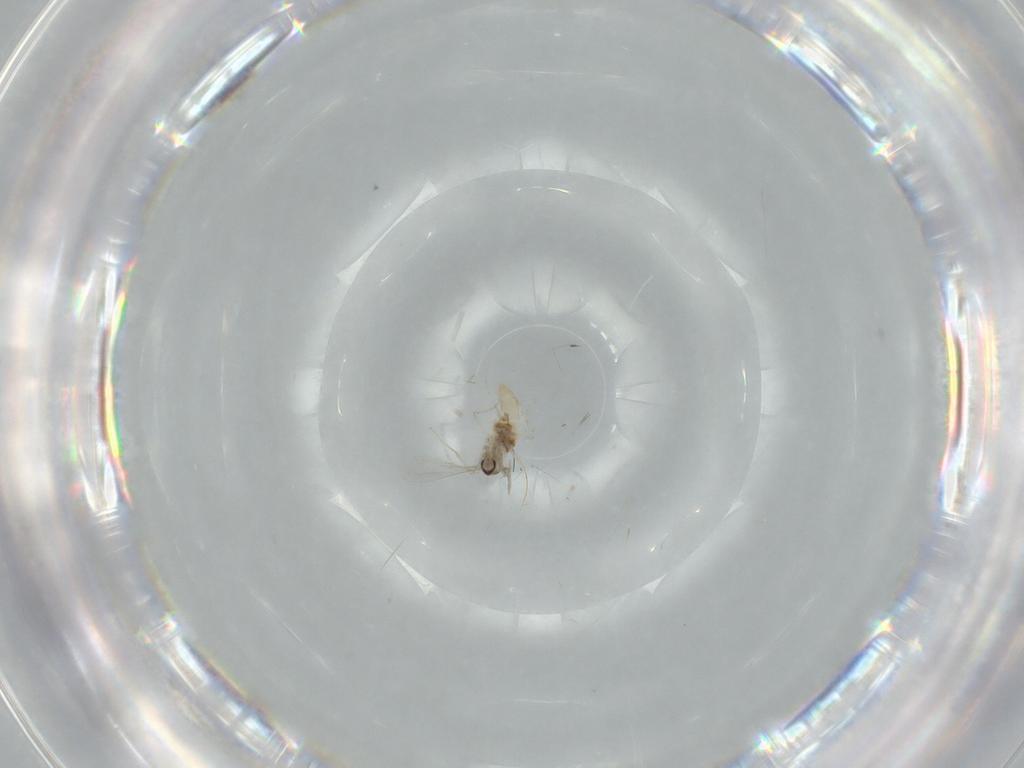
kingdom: Animalia
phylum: Arthropoda
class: Insecta
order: Diptera
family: Cecidomyiidae
